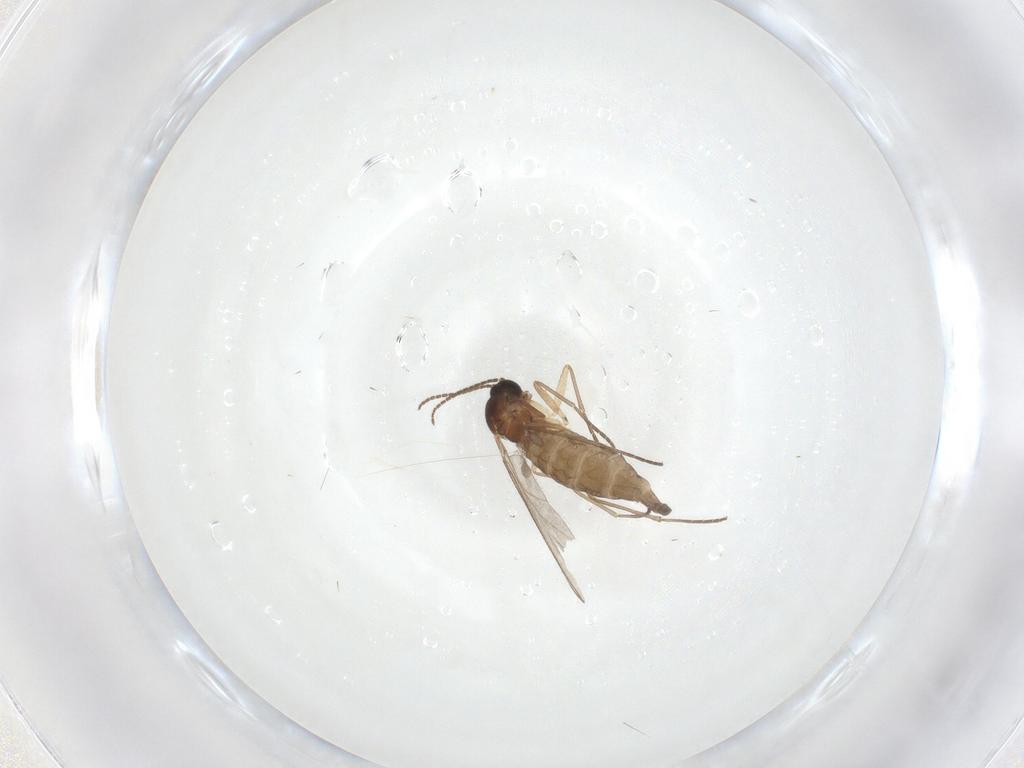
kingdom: Animalia
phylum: Arthropoda
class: Insecta
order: Diptera
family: Sciaridae
